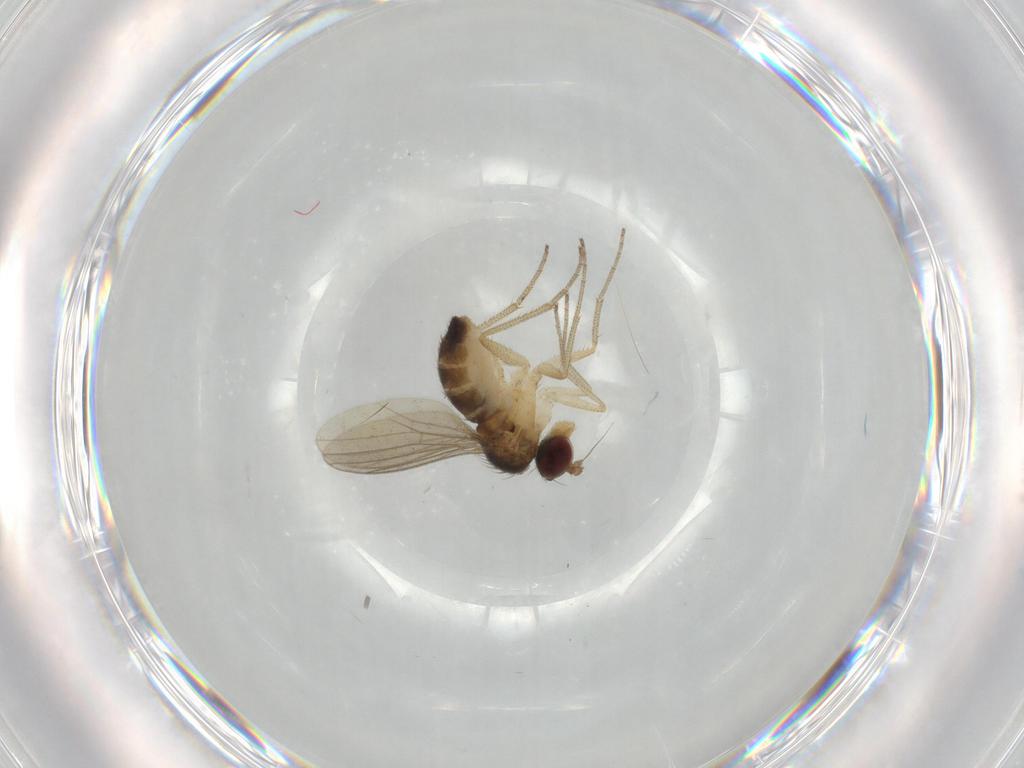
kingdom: Animalia
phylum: Arthropoda
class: Insecta
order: Diptera
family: Dolichopodidae
